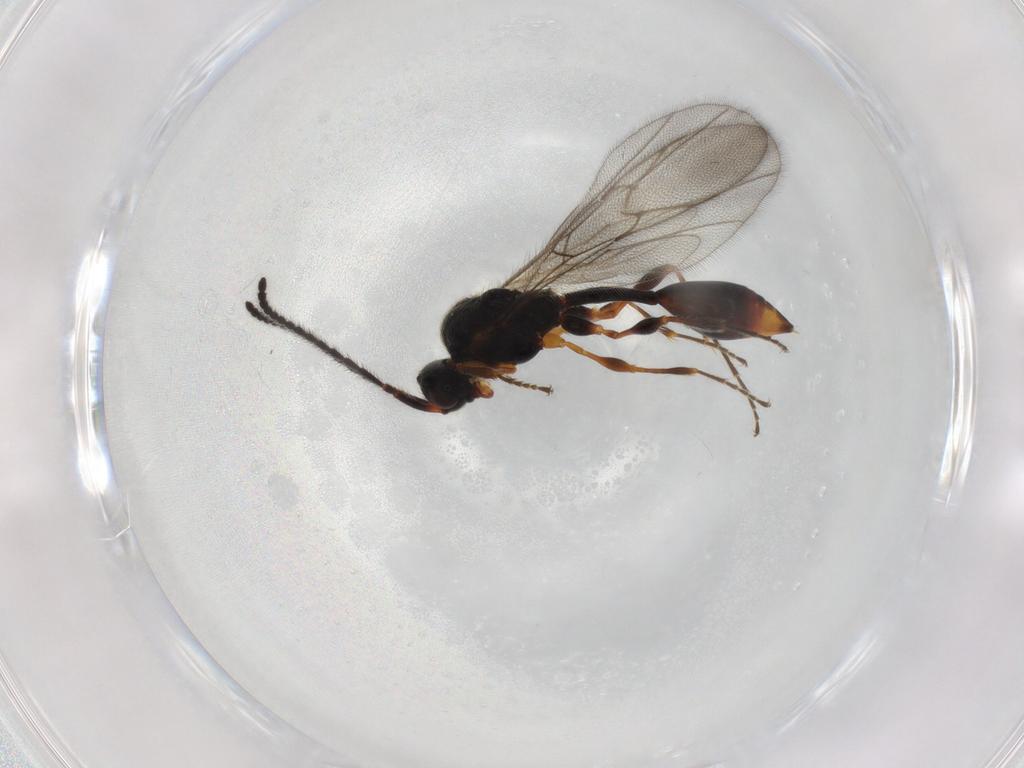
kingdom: Animalia
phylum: Arthropoda
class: Insecta
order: Hymenoptera
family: Diapriidae
